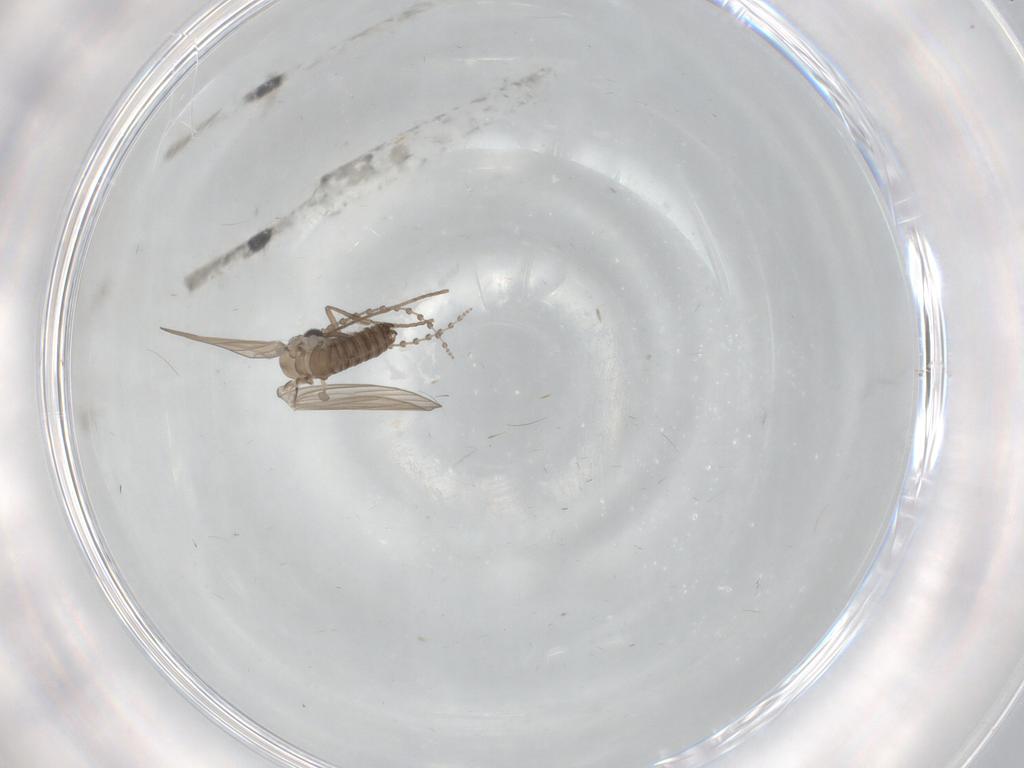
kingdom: Animalia
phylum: Arthropoda
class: Insecta
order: Diptera
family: Psychodidae
